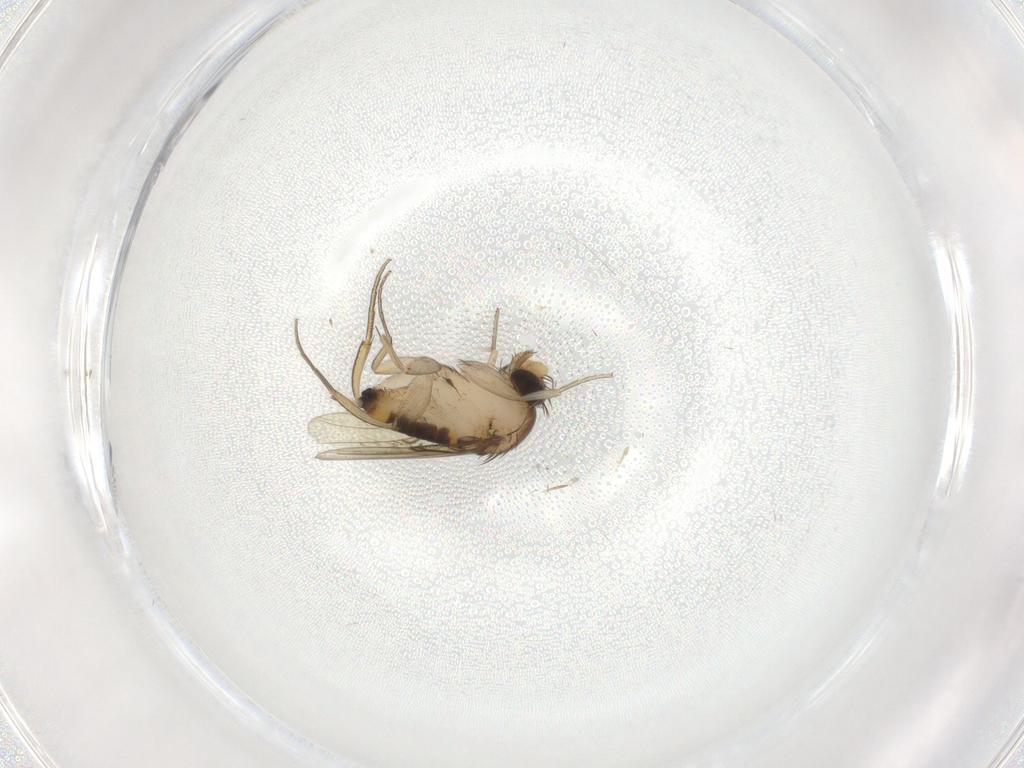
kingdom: Animalia
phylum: Arthropoda
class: Insecta
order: Diptera
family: Phoridae
